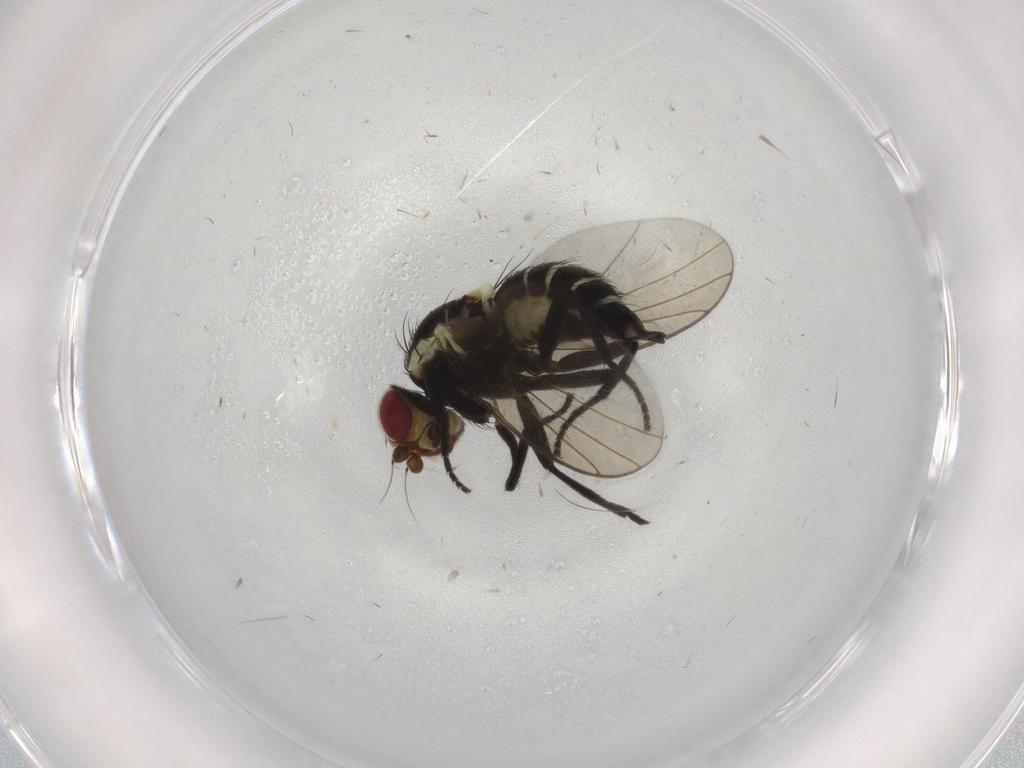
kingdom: Animalia
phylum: Arthropoda
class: Insecta
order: Diptera
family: Agromyzidae
